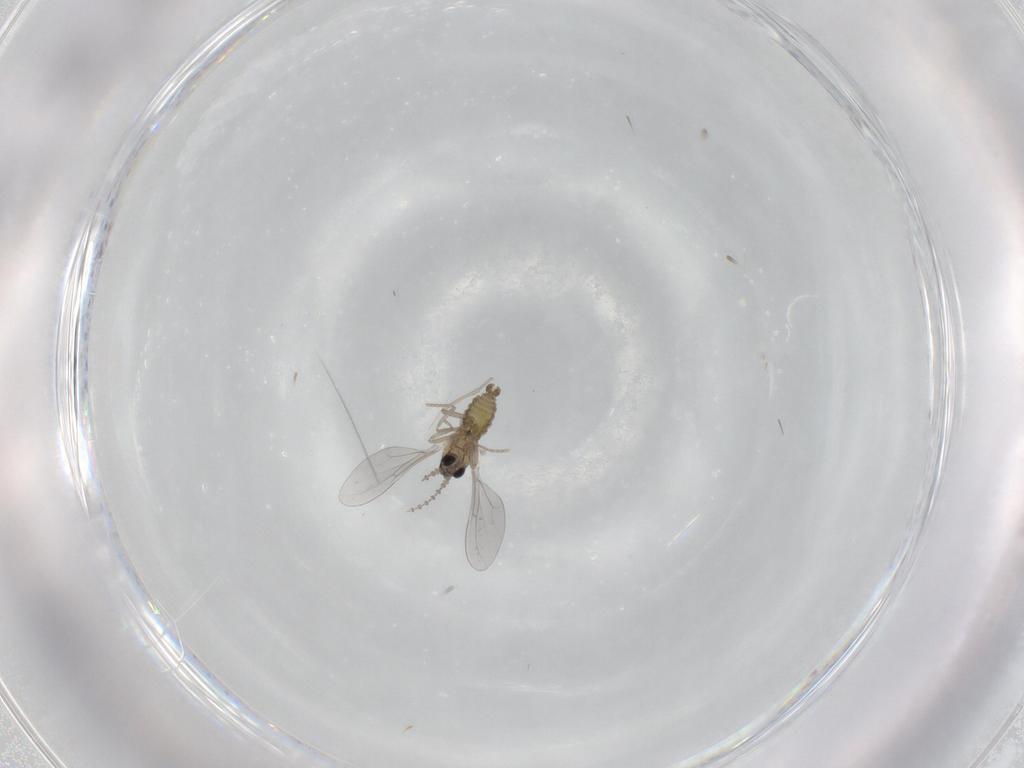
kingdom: Animalia
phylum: Arthropoda
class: Insecta
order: Diptera
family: Cecidomyiidae
